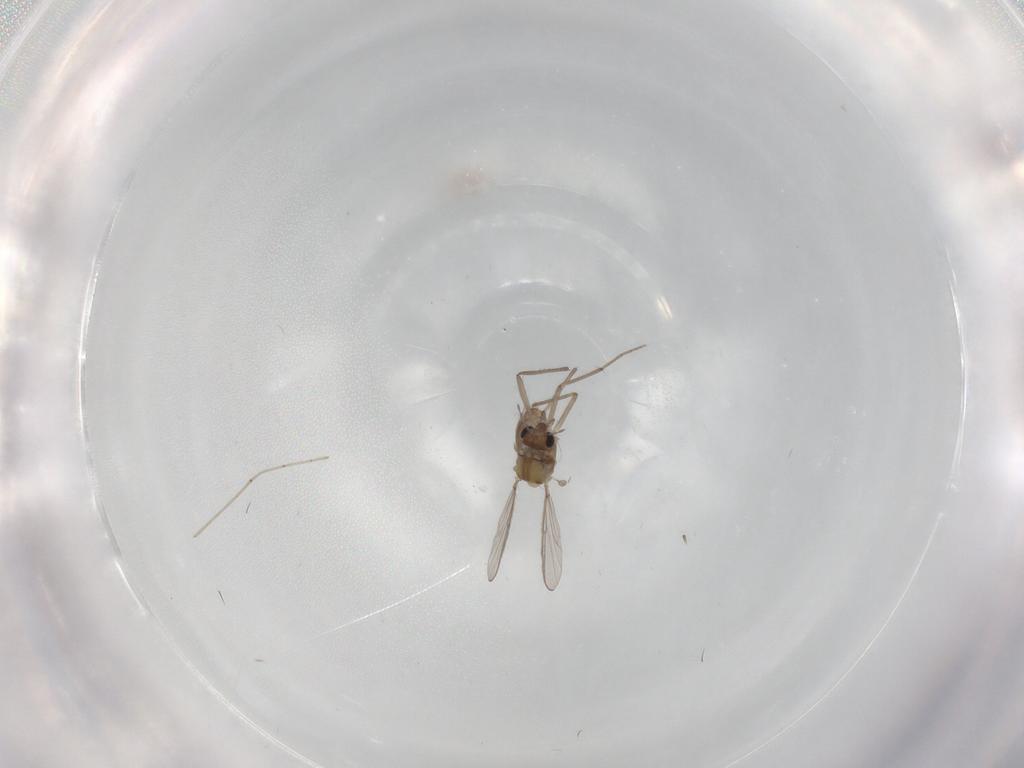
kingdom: Animalia
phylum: Arthropoda
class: Insecta
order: Diptera
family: Chironomidae
